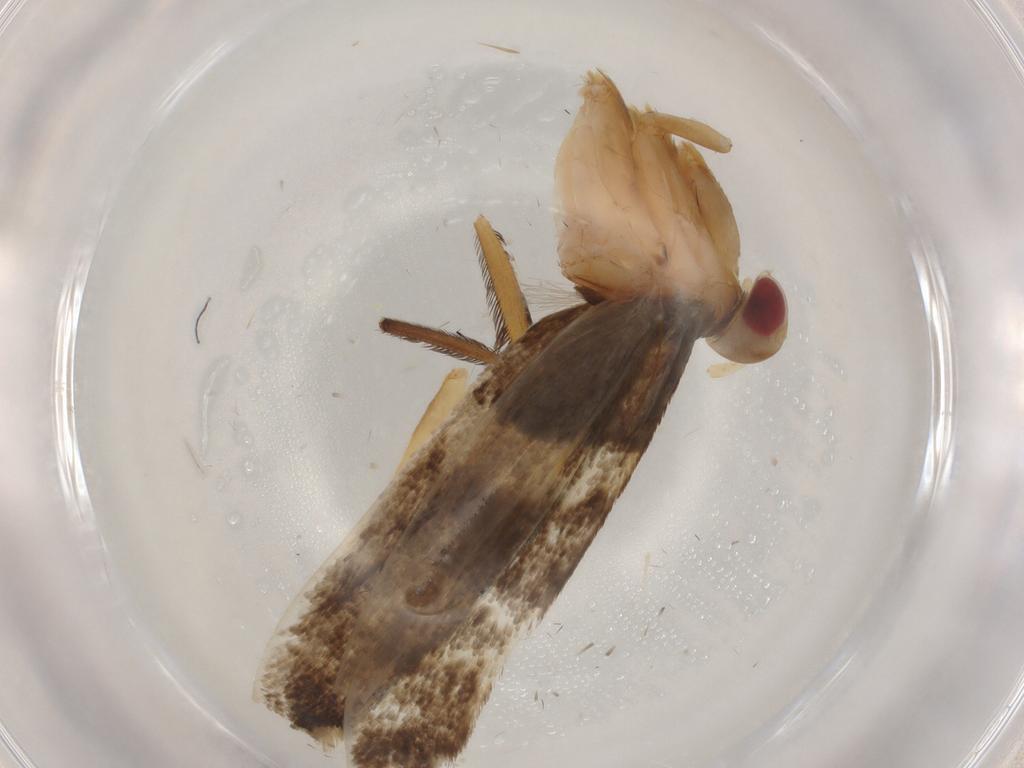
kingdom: Animalia
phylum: Arthropoda
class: Insecta
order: Lepidoptera
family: Cosmopterigidae
